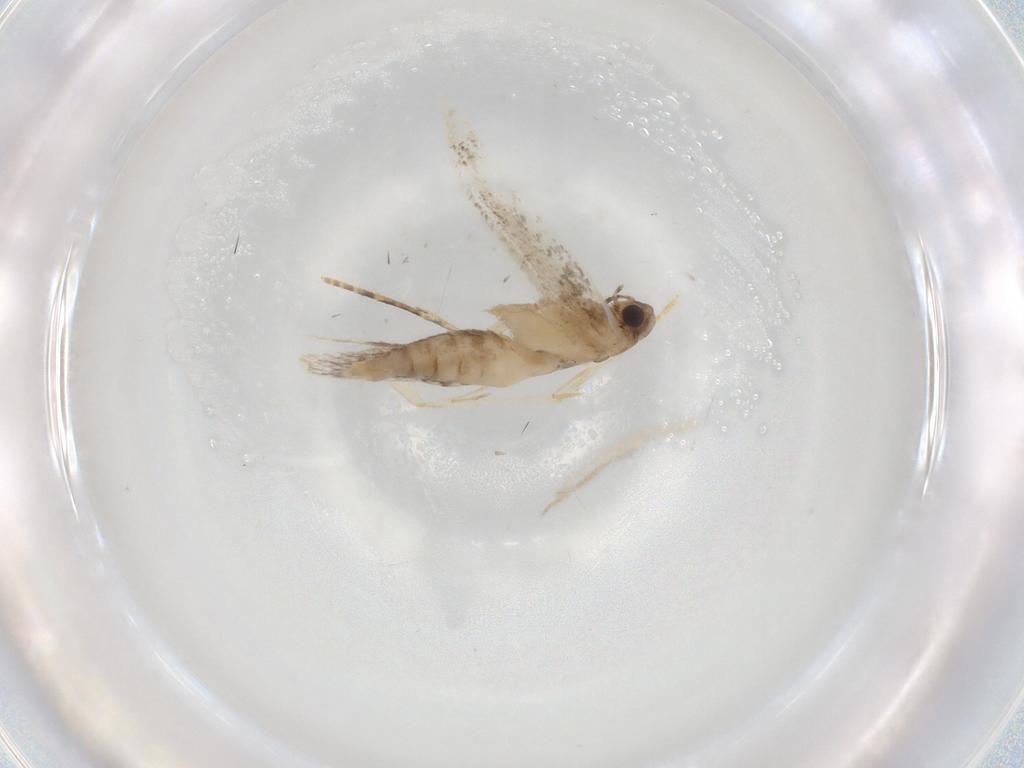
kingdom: Animalia
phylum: Arthropoda
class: Insecta
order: Lepidoptera
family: Tineidae
